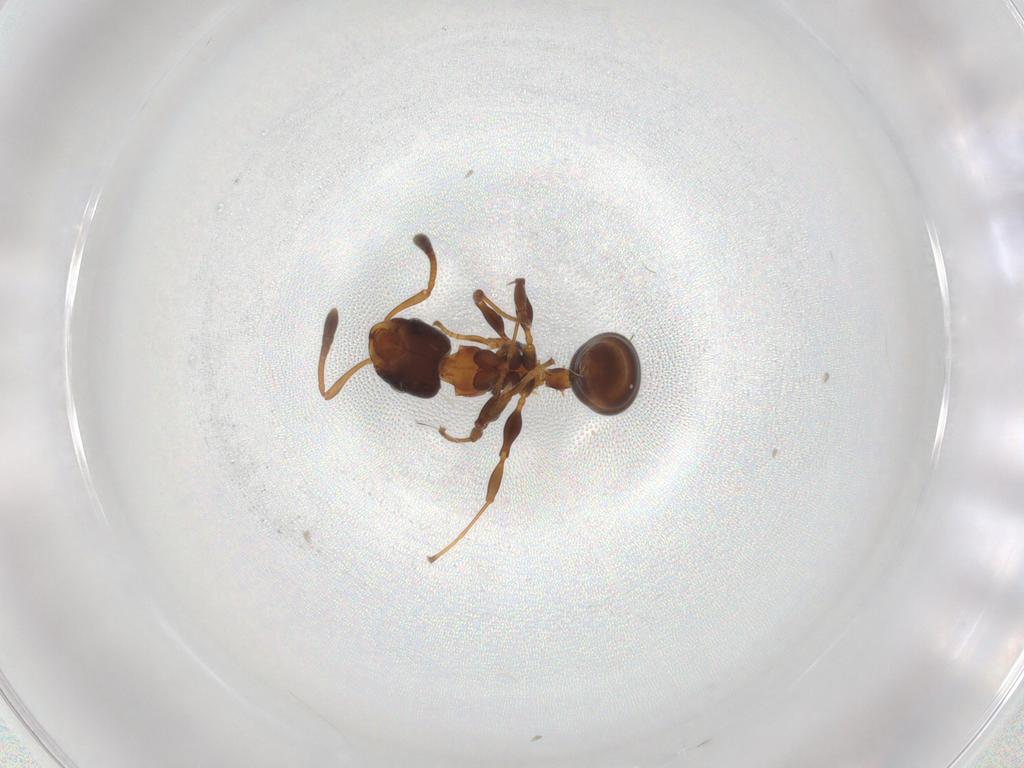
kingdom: Animalia
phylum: Arthropoda
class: Insecta
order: Hymenoptera
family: Formicidae
